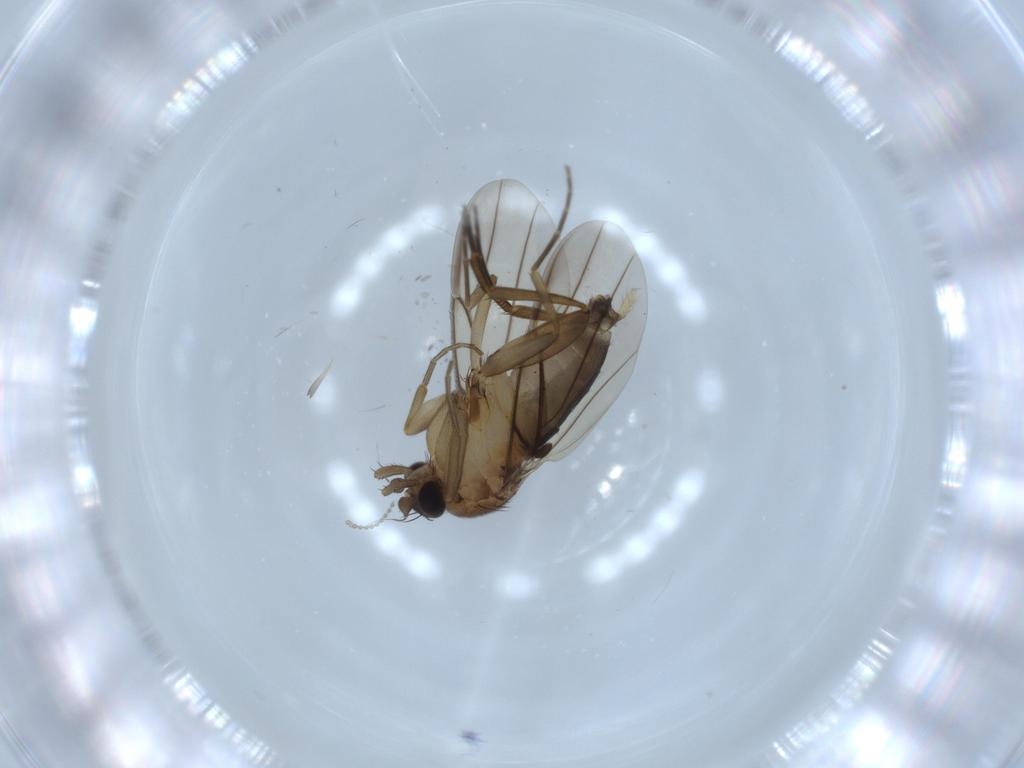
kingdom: Animalia
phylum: Arthropoda
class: Insecta
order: Diptera
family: Phoridae
